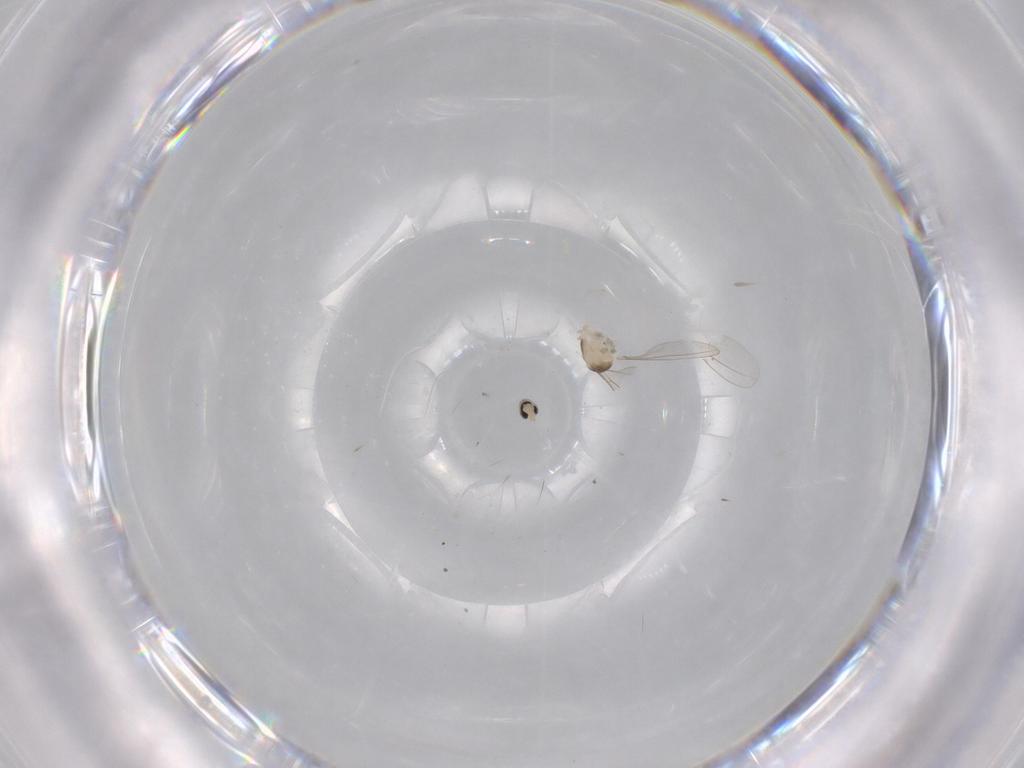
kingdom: Animalia
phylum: Arthropoda
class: Insecta
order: Diptera
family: Cecidomyiidae
